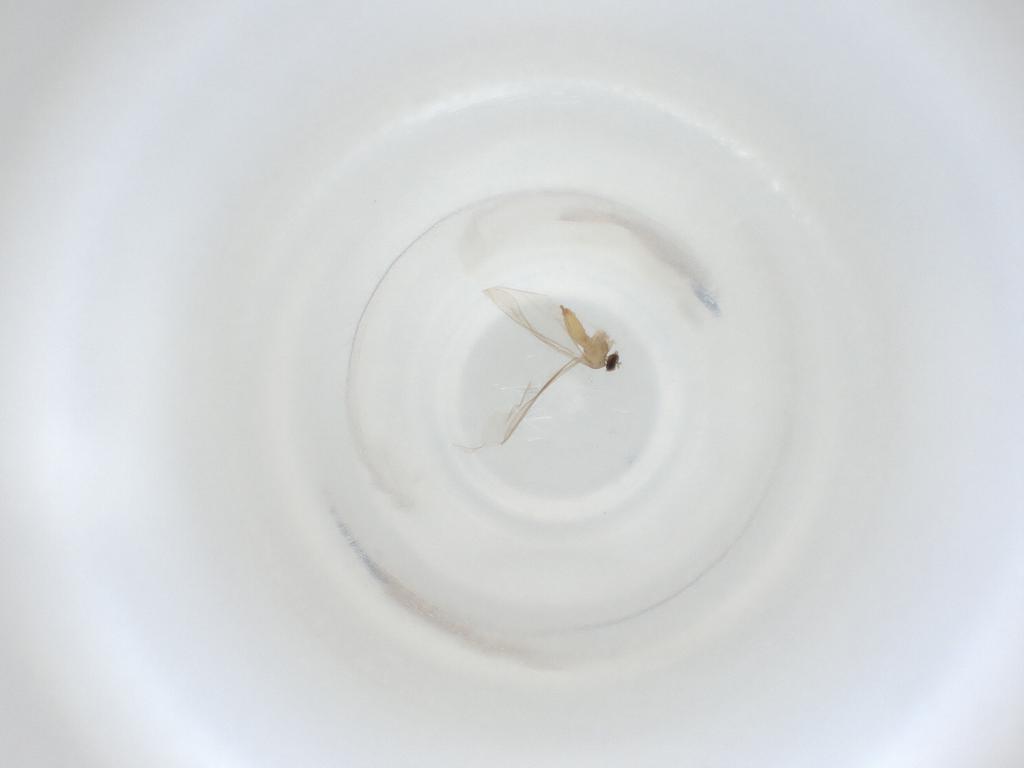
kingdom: Animalia
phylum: Arthropoda
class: Insecta
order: Diptera
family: Cecidomyiidae
